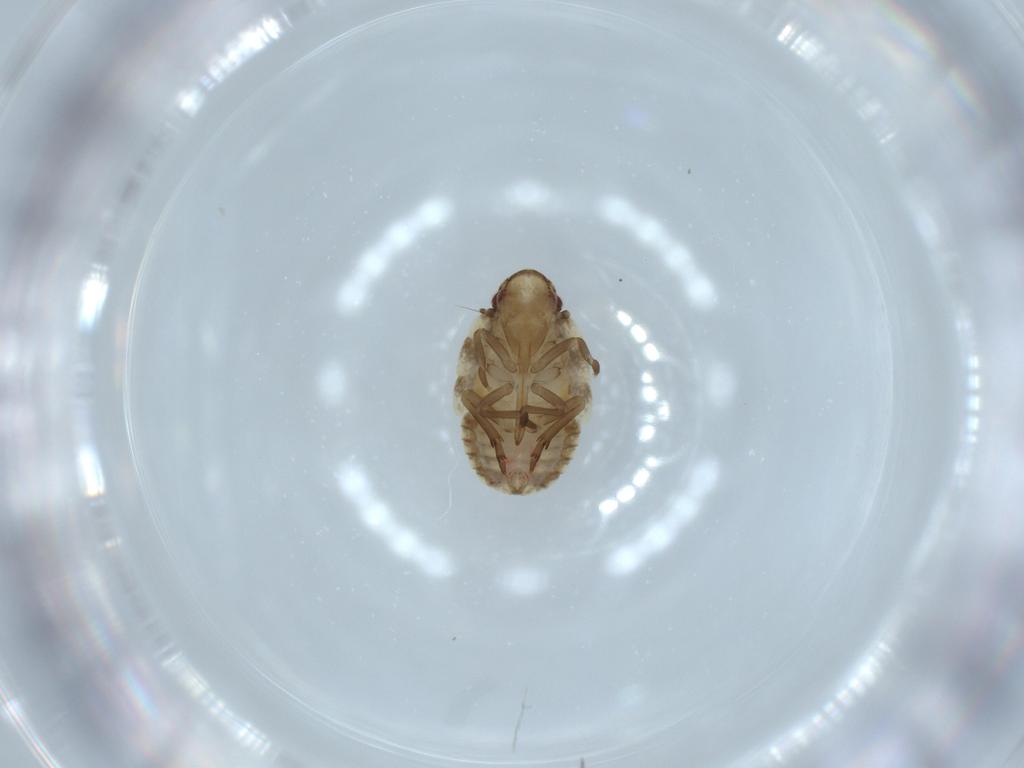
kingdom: Animalia
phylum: Arthropoda
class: Insecta
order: Hemiptera
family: Flatidae
